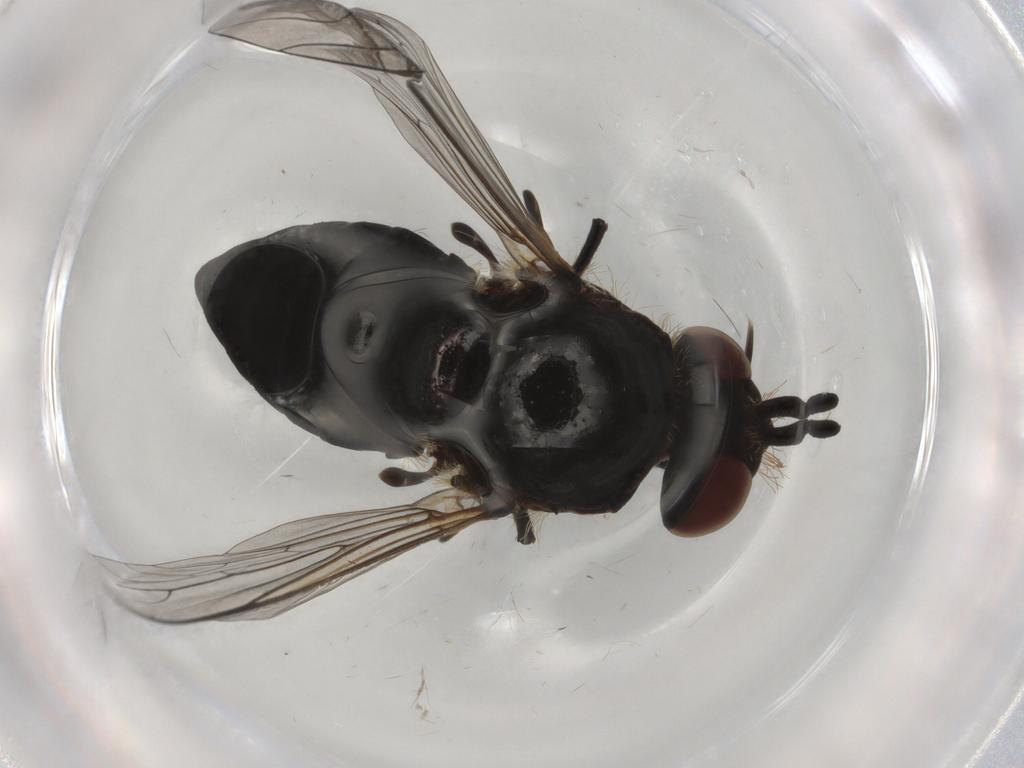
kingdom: Animalia
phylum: Arthropoda
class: Insecta
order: Diptera
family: Bombyliidae
